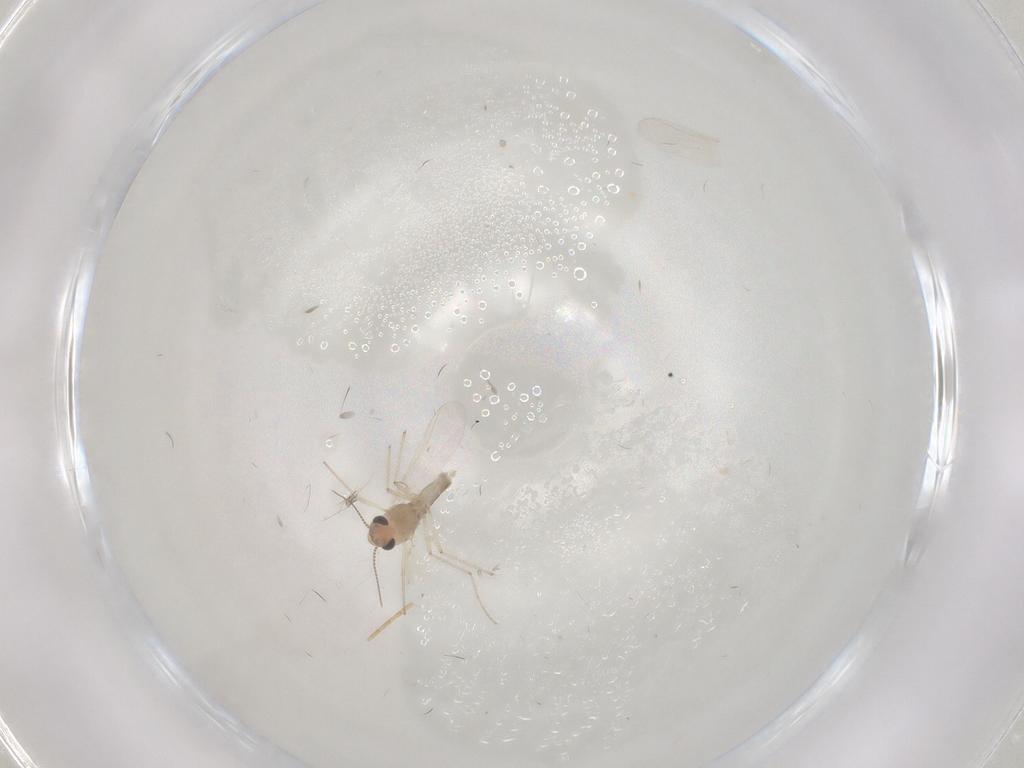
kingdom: Animalia
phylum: Arthropoda
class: Insecta
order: Diptera
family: Chironomidae
